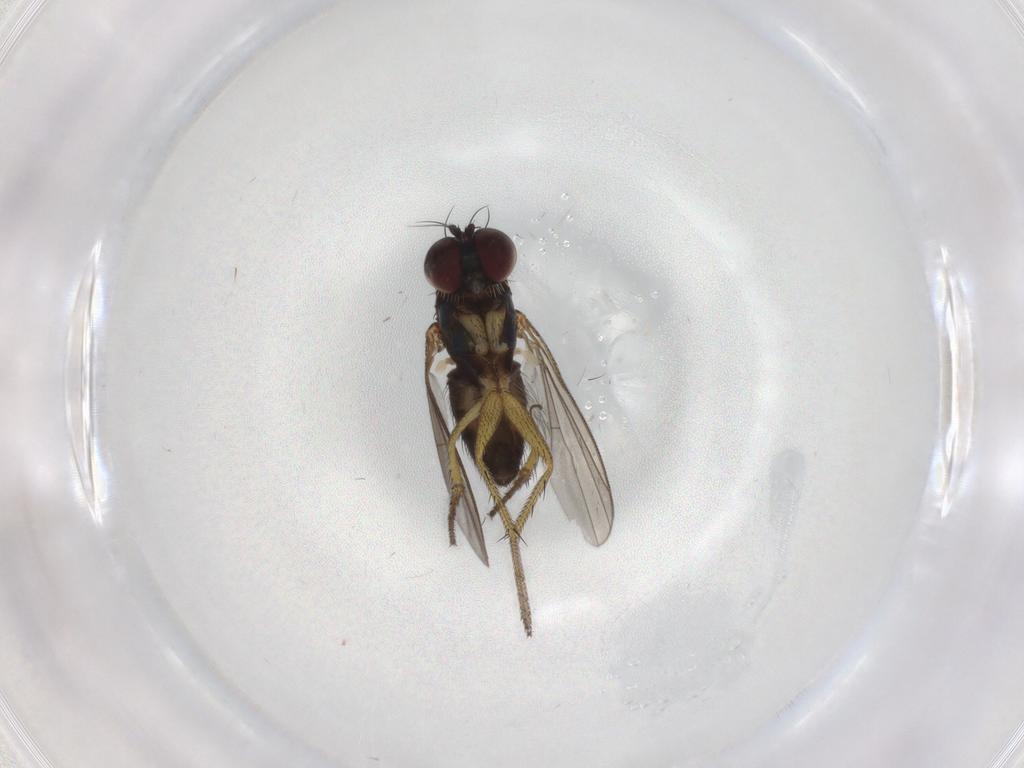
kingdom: Animalia
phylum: Arthropoda
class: Insecta
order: Diptera
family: Dolichopodidae
